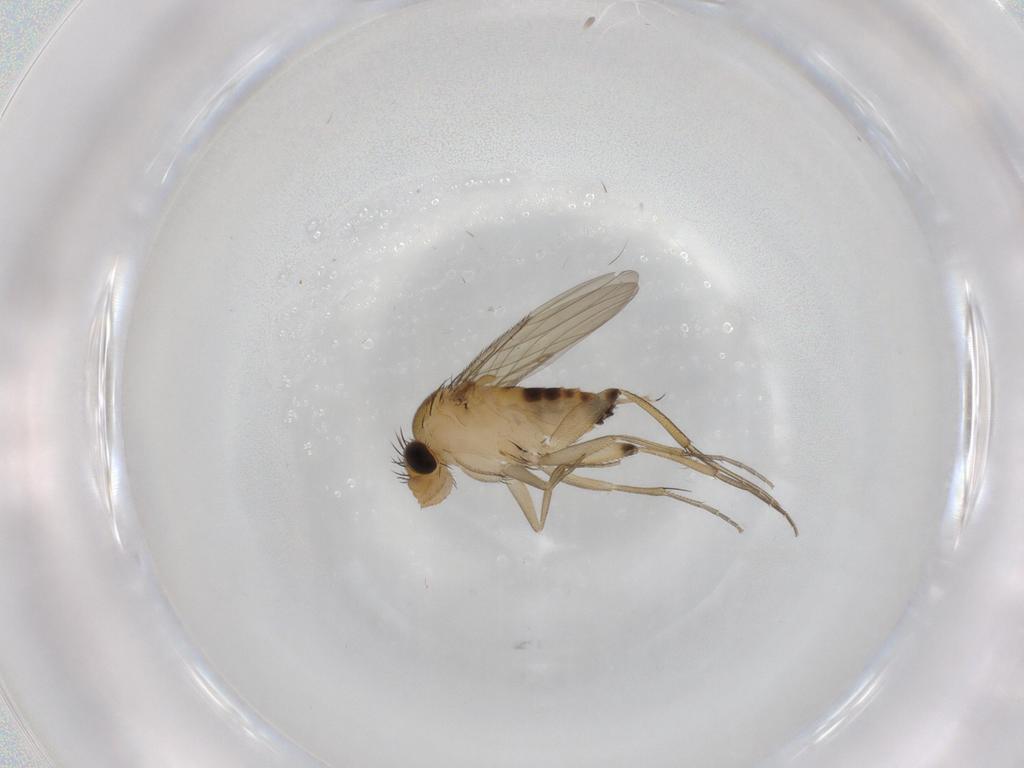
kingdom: Animalia
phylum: Arthropoda
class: Insecta
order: Diptera
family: Phoridae
